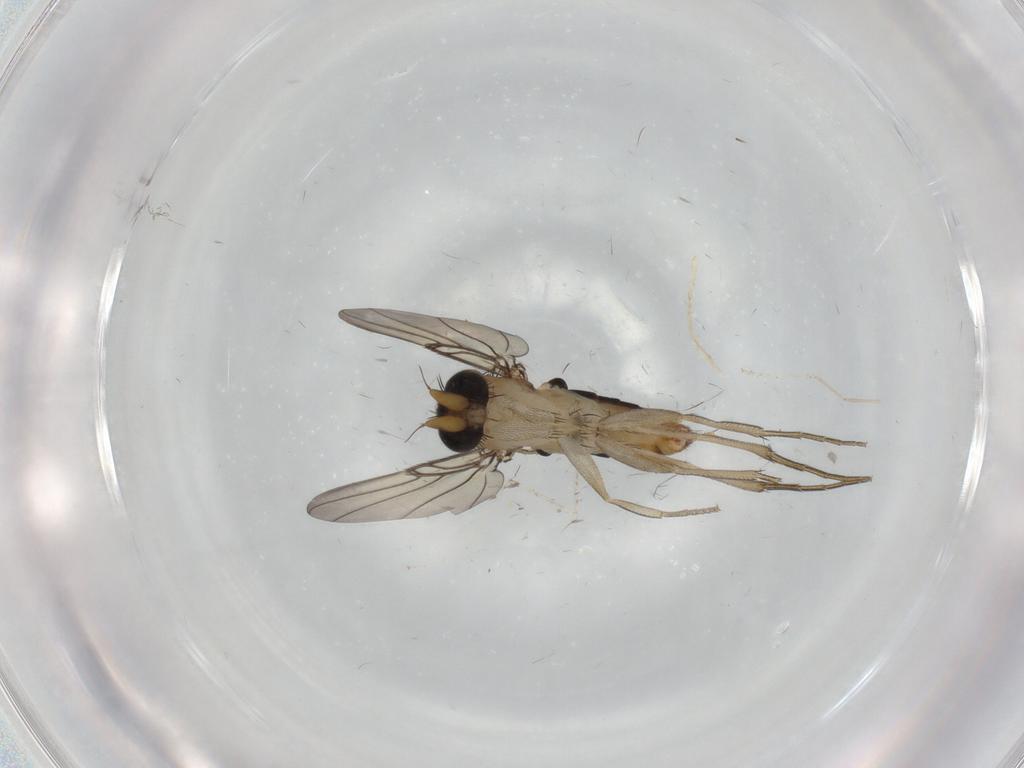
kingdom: Animalia
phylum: Arthropoda
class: Insecta
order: Diptera
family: Phoridae
